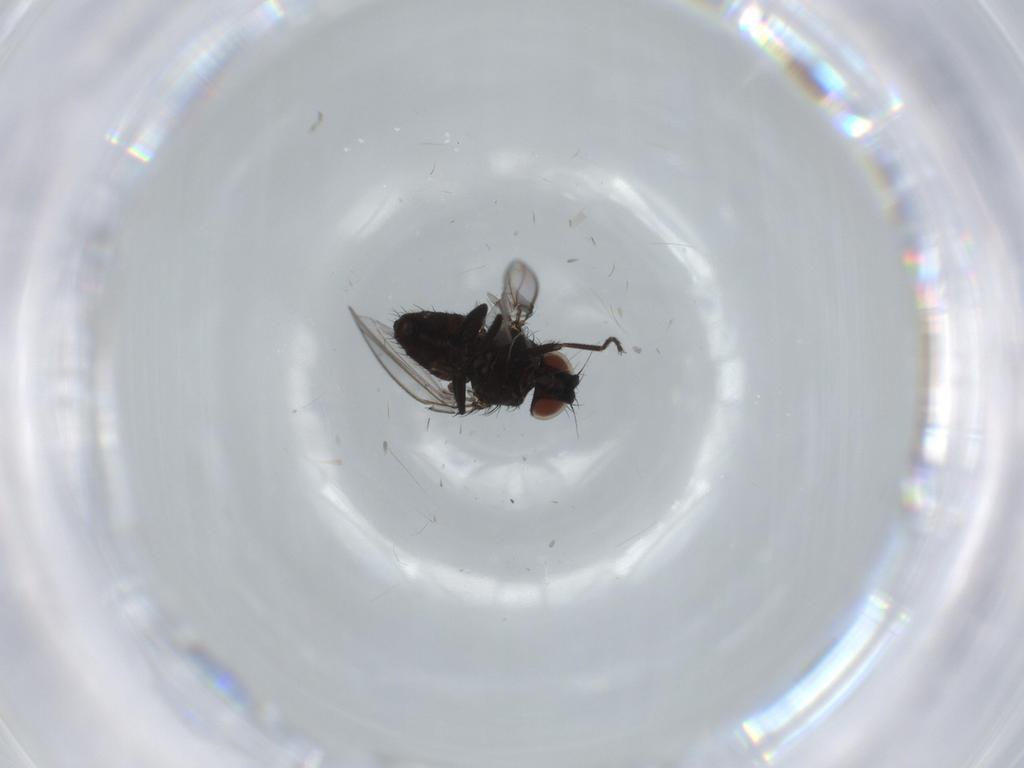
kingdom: Animalia
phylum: Arthropoda
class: Insecta
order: Diptera
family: Milichiidae
